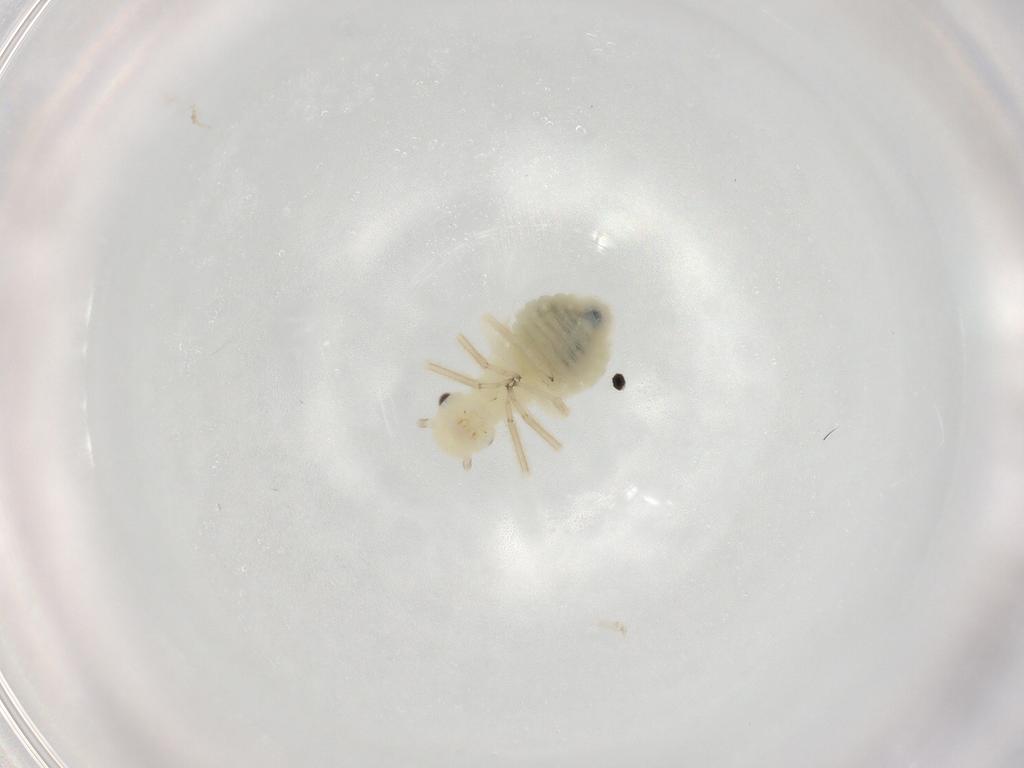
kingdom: Animalia
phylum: Arthropoda
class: Insecta
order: Psocodea
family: Philotarsidae
